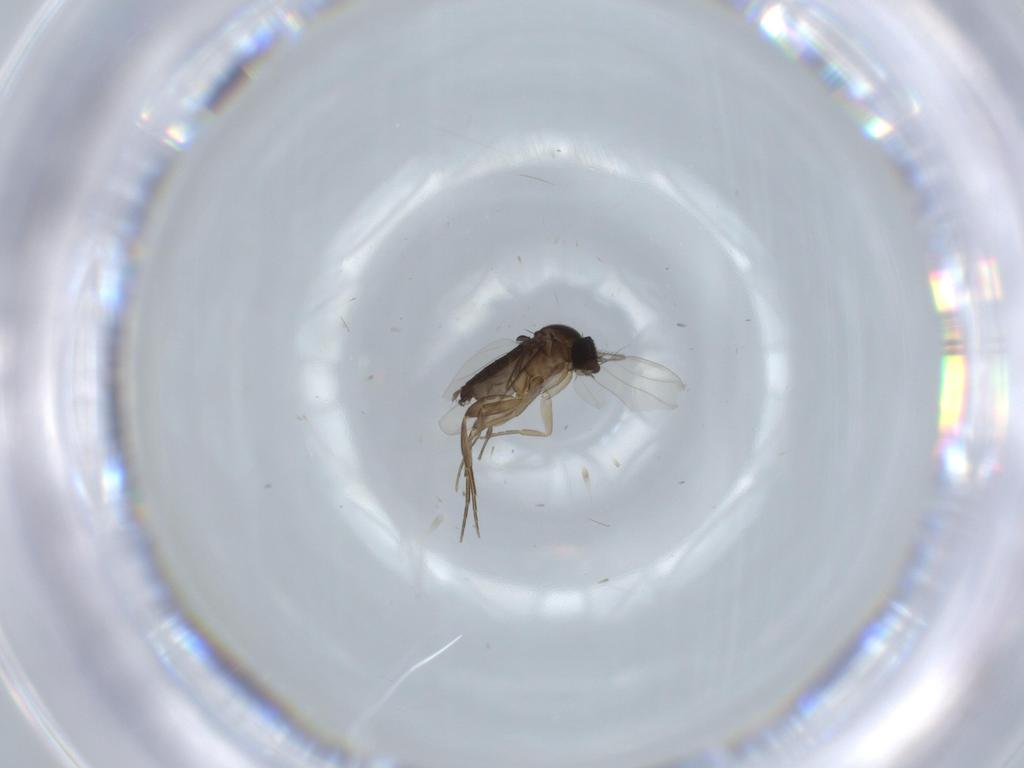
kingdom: Animalia
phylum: Arthropoda
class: Insecta
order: Diptera
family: Phoridae
